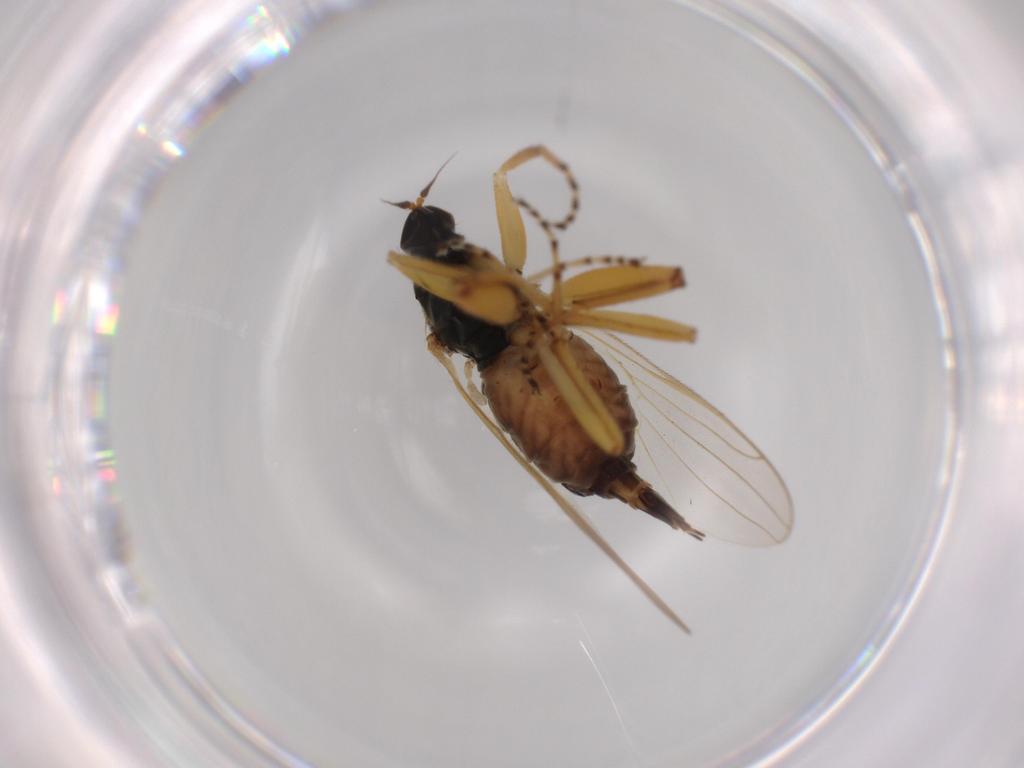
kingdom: Animalia
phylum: Arthropoda
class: Insecta
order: Diptera
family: Hybotidae
